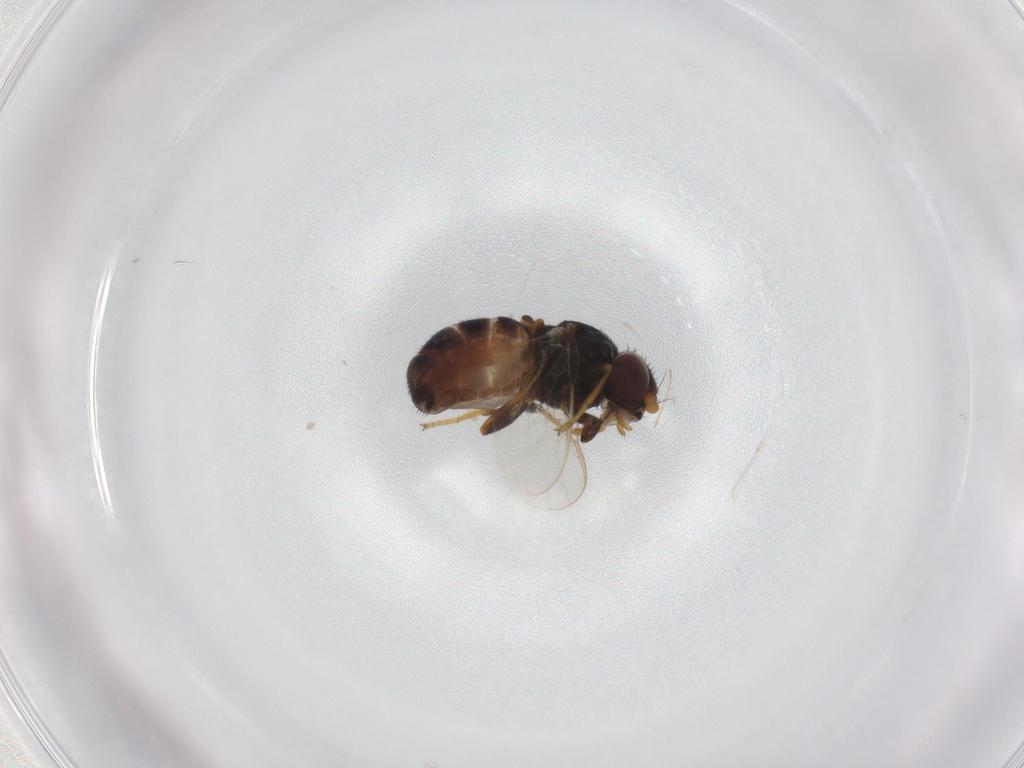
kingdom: Animalia
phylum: Arthropoda
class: Insecta
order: Diptera
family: Chloropidae
